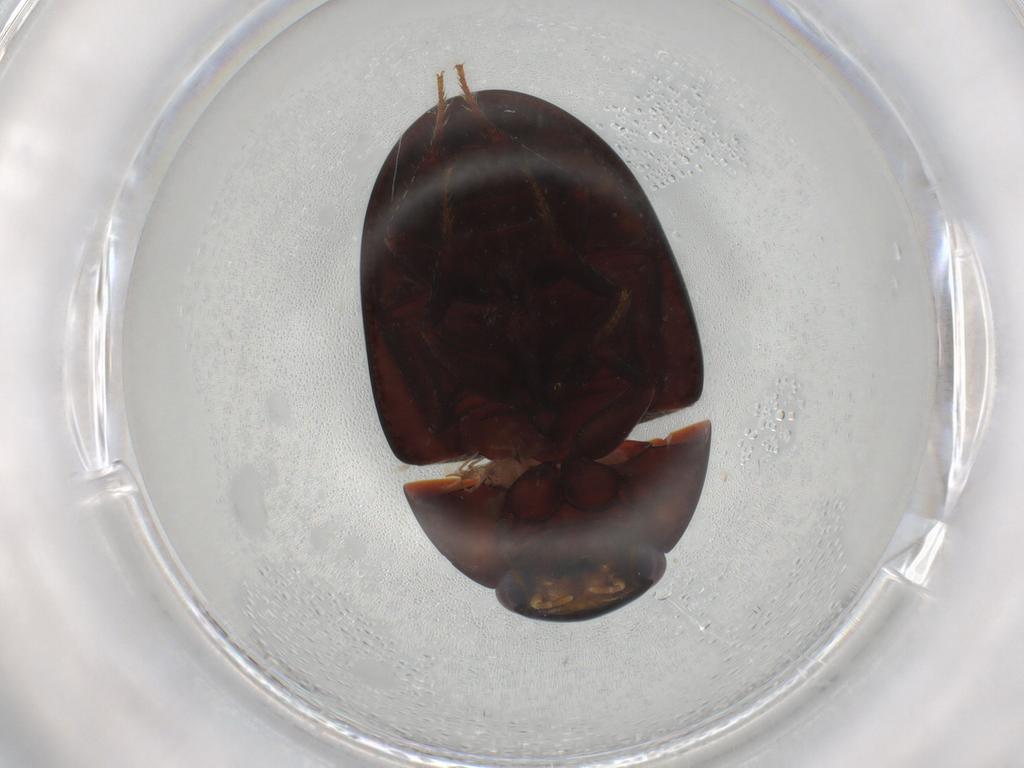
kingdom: Animalia
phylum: Arthropoda
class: Insecta
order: Coleoptera
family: Hydrophilidae
